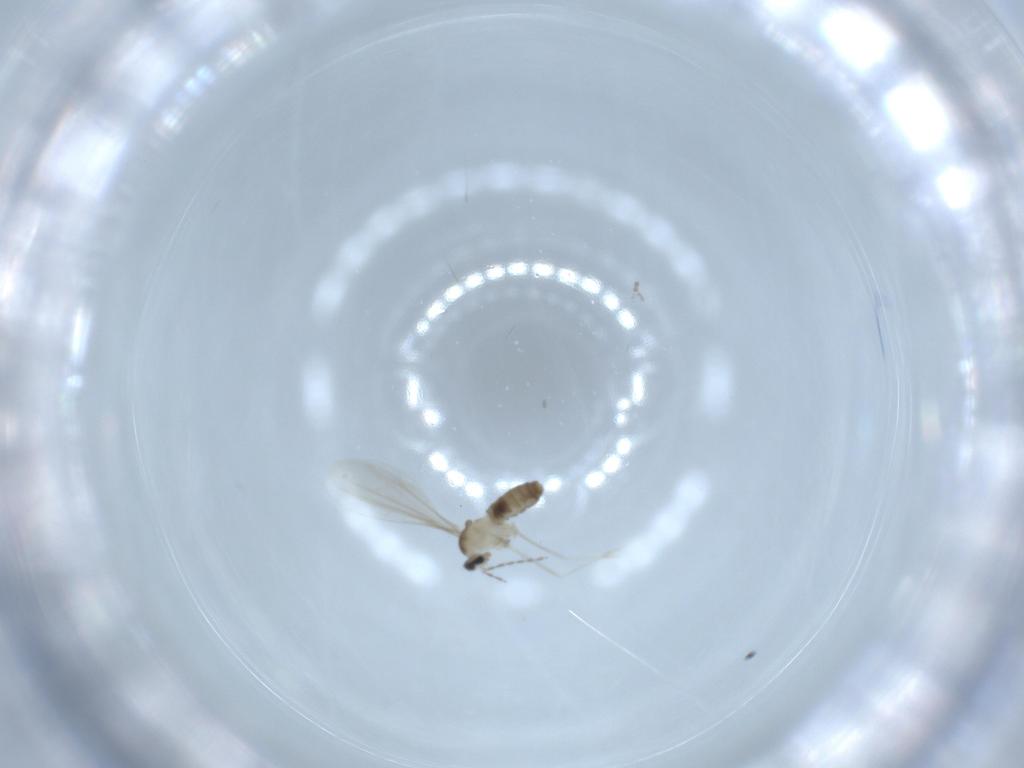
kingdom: Animalia
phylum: Arthropoda
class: Insecta
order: Diptera
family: Cecidomyiidae
